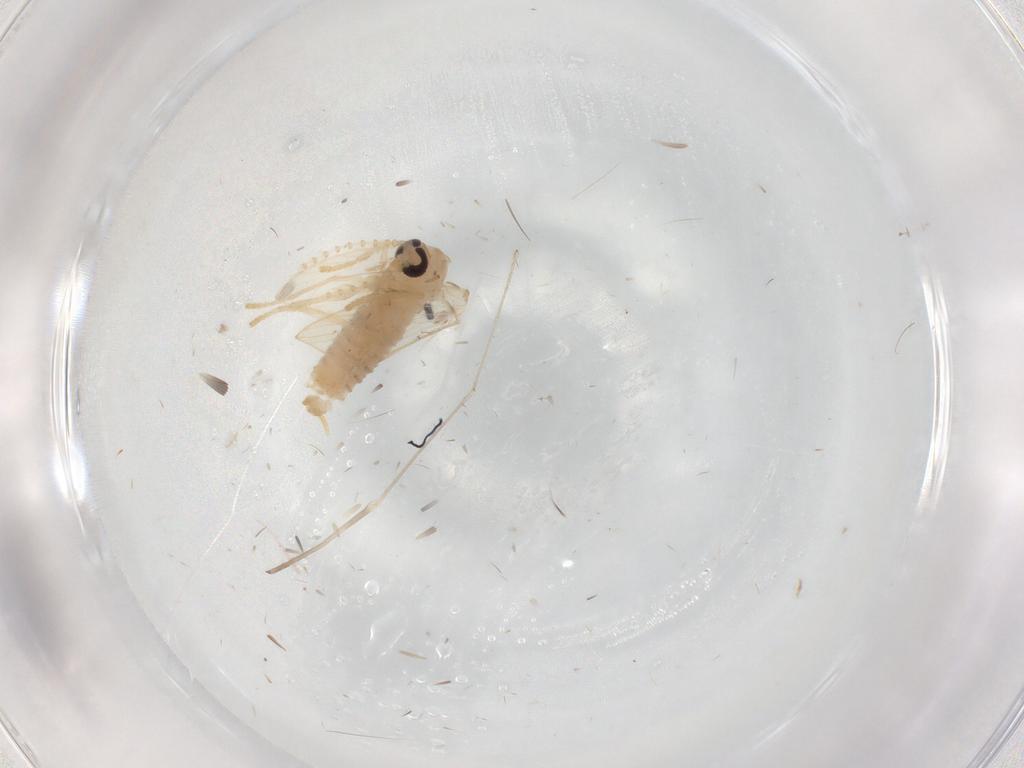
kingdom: Animalia
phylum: Arthropoda
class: Insecta
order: Diptera
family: Psychodidae
